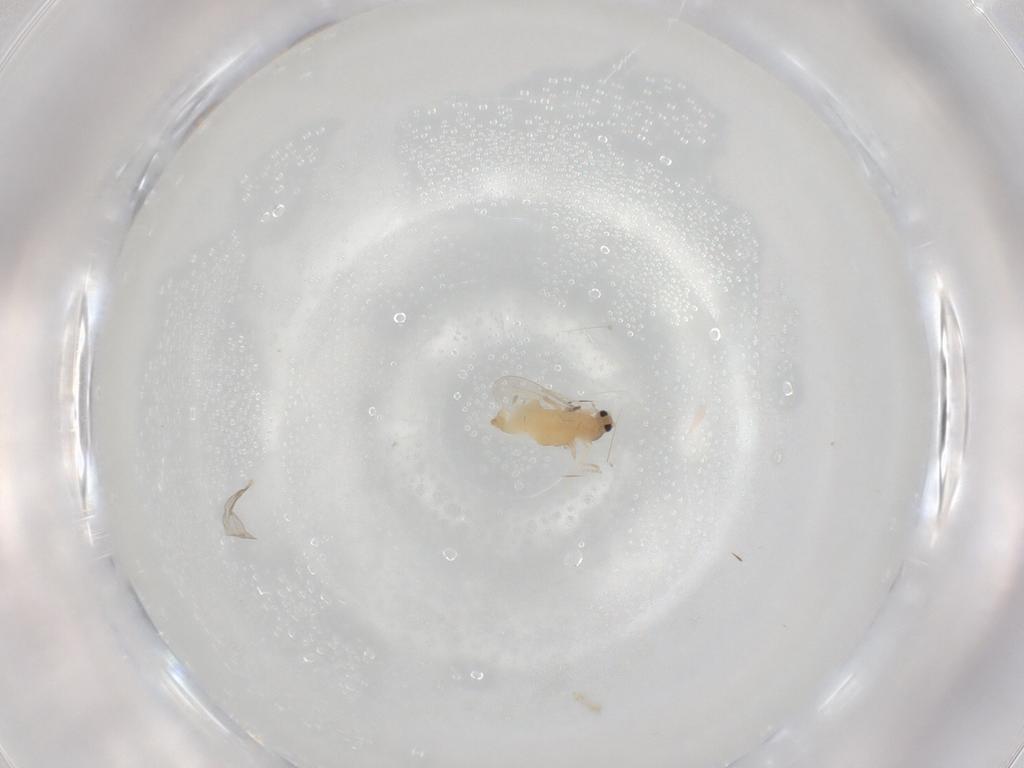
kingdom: Animalia
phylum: Arthropoda
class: Insecta
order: Diptera
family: Cecidomyiidae
